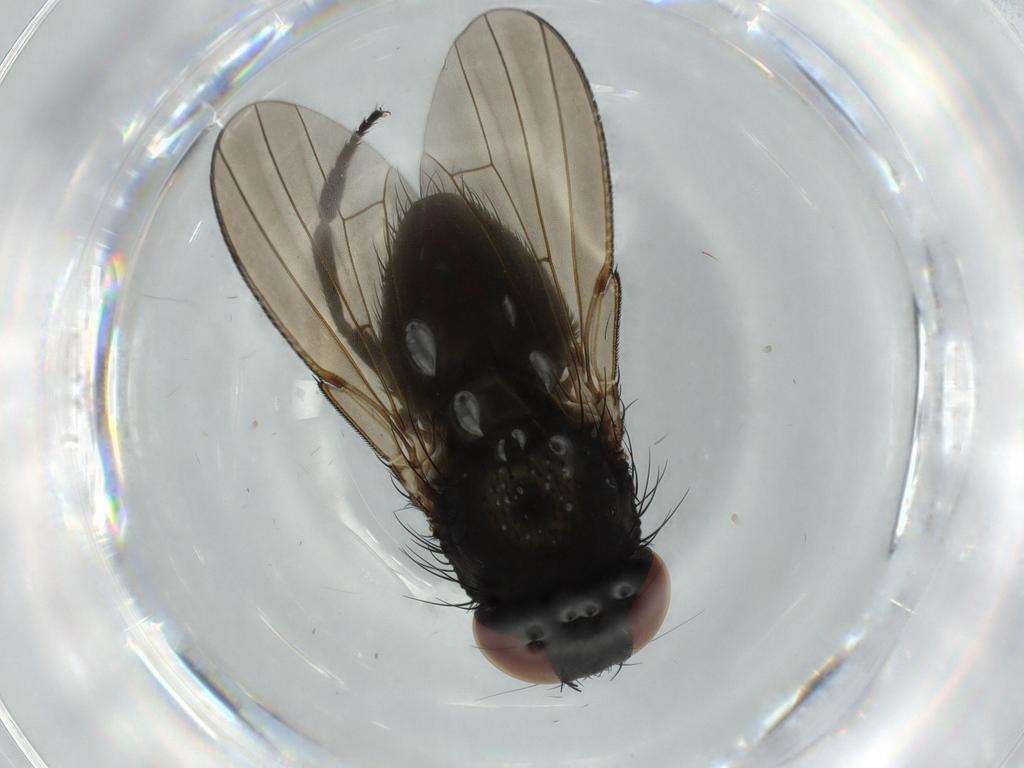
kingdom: Animalia
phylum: Arthropoda
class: Insecta
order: Diptera
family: Milichiidae
